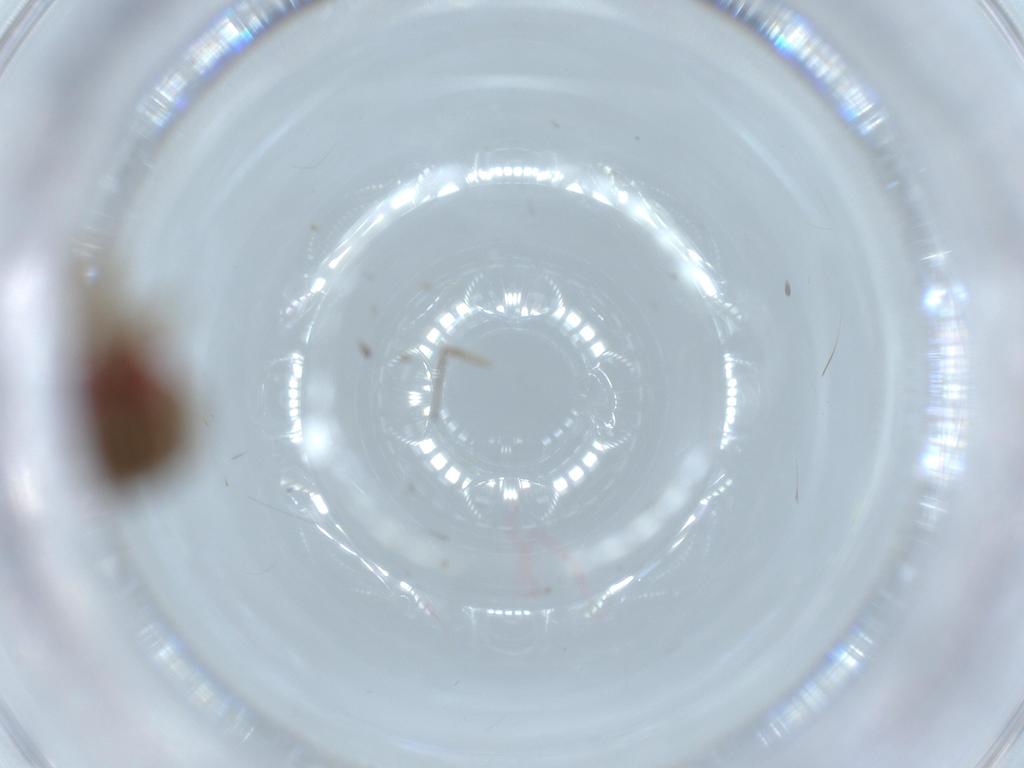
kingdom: Animalia
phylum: Arthropoda
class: Insecta
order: Diptera
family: Drosophilidae
